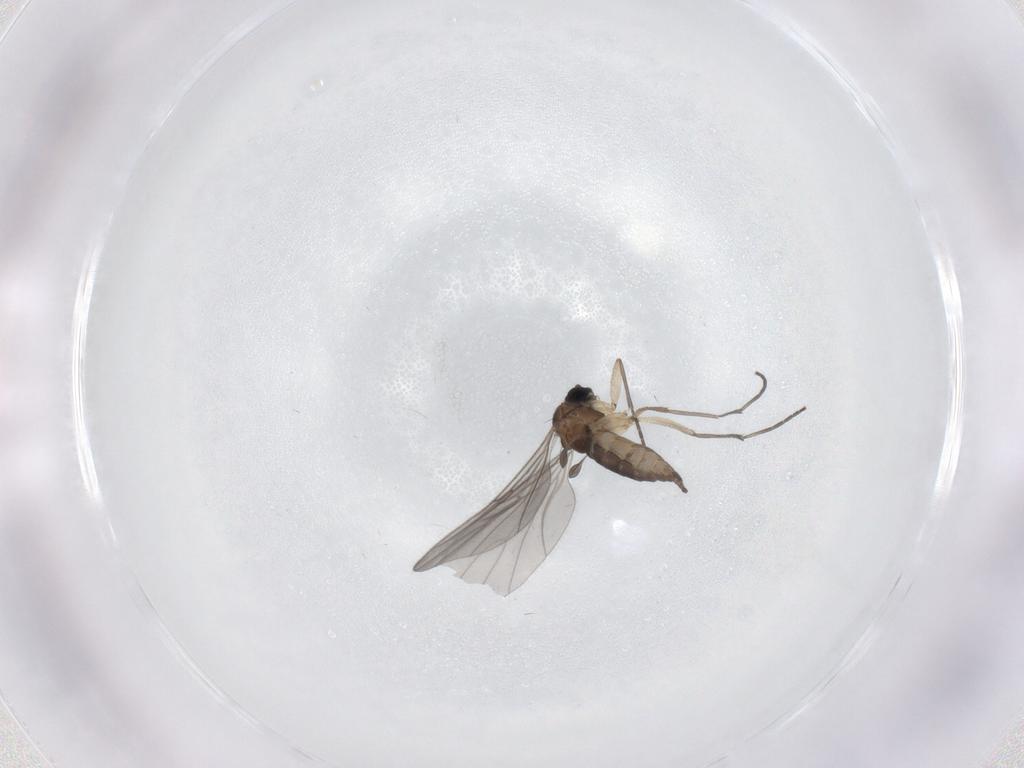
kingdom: Animalia
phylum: Arthropoda
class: Insecta
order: Diptera
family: Sciaridae
